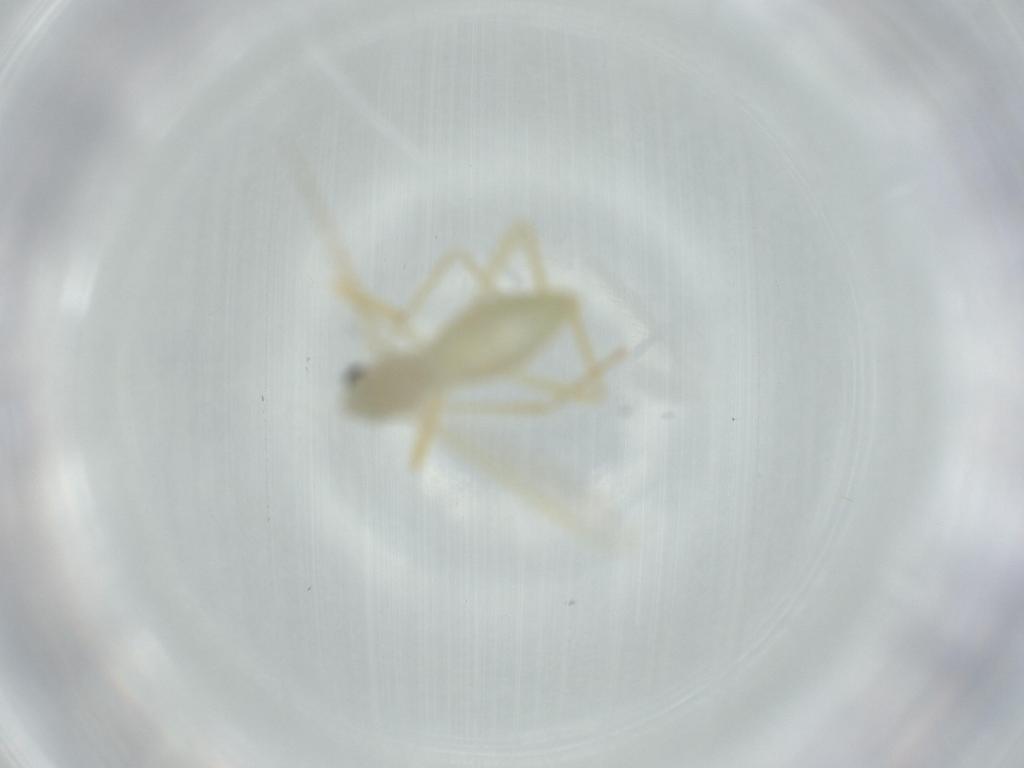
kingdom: Animalia
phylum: Arthropoda
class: Insecta
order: Diptera
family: Chironomidae
